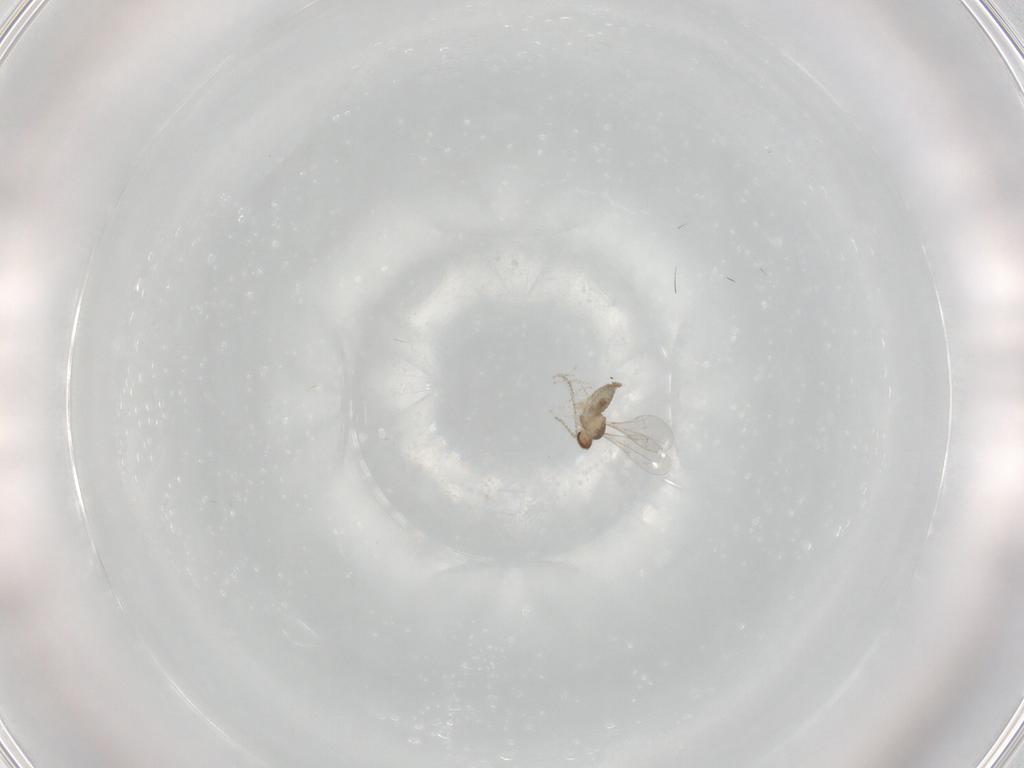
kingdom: Animalia
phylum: Arthropoda
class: Insecta
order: Diptera
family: Cecidomyiidae
